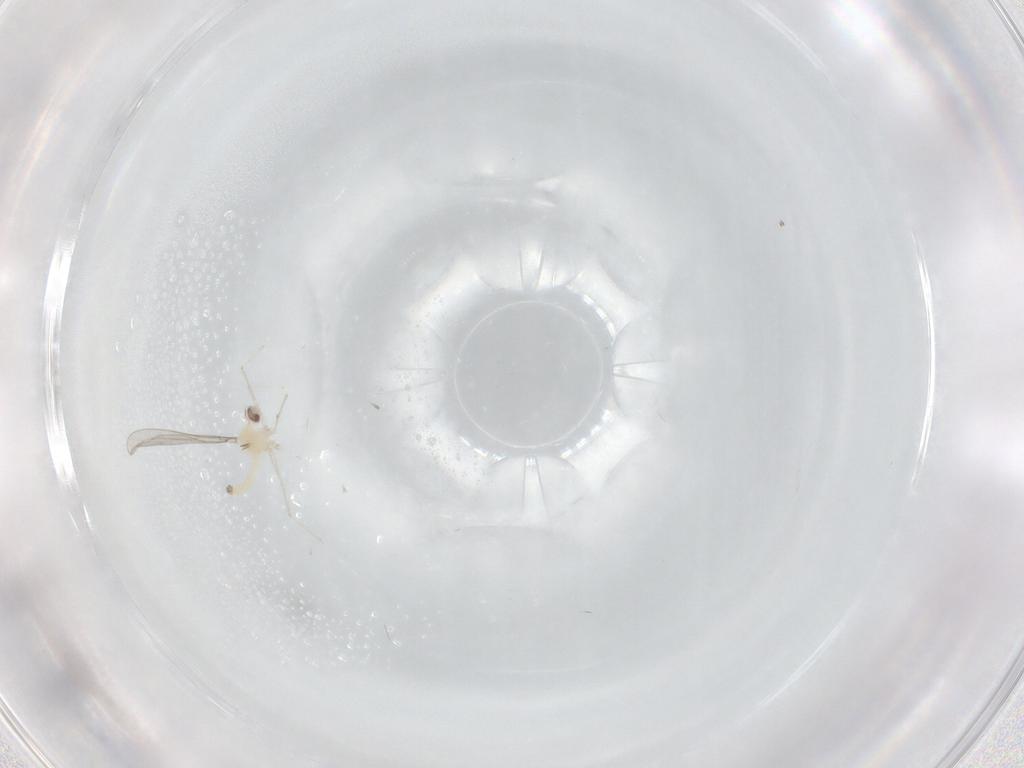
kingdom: Animalia
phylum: Arthropoda
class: Insecta
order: Diptera
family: Cecidomyiidae
